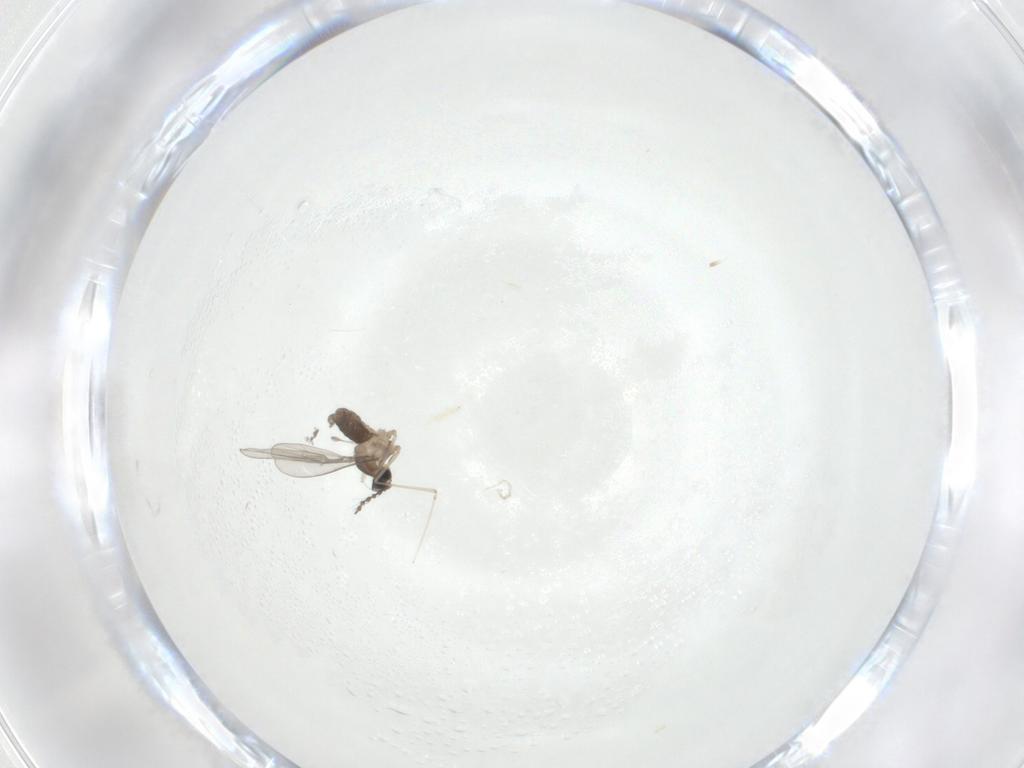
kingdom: Animalia
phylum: Arthropoda
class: Insecta
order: Diptera
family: Cecidomyiidae
